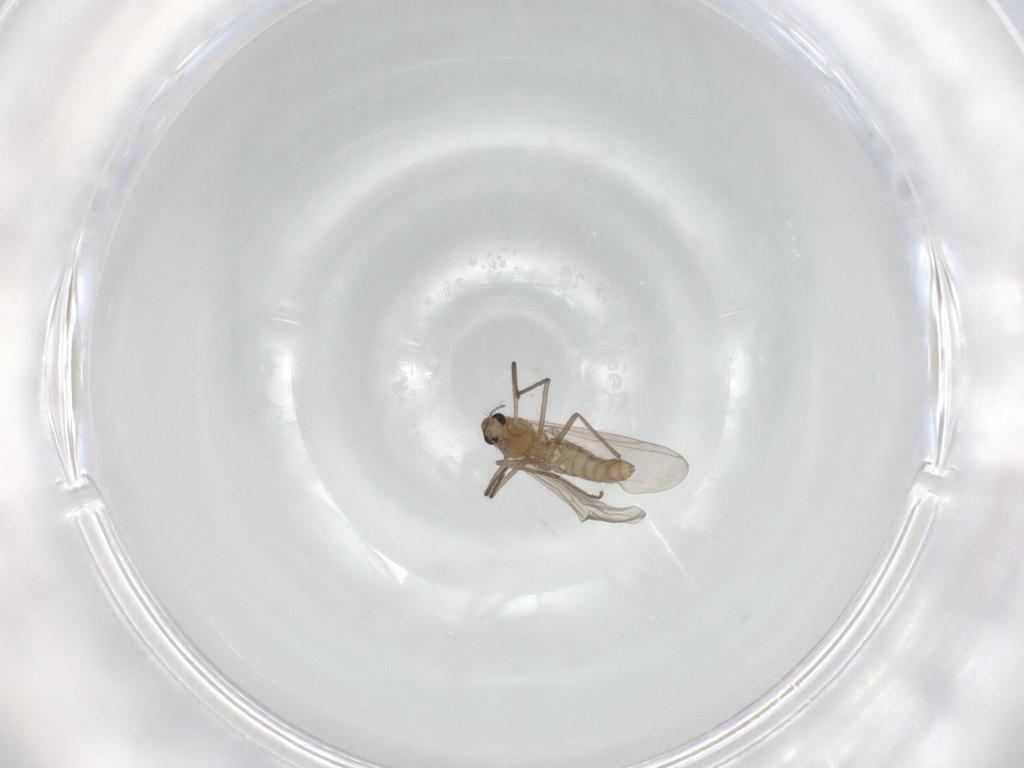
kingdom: Animalia
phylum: Arthropoda
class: Insecta
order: Diptera
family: Chironomidae
